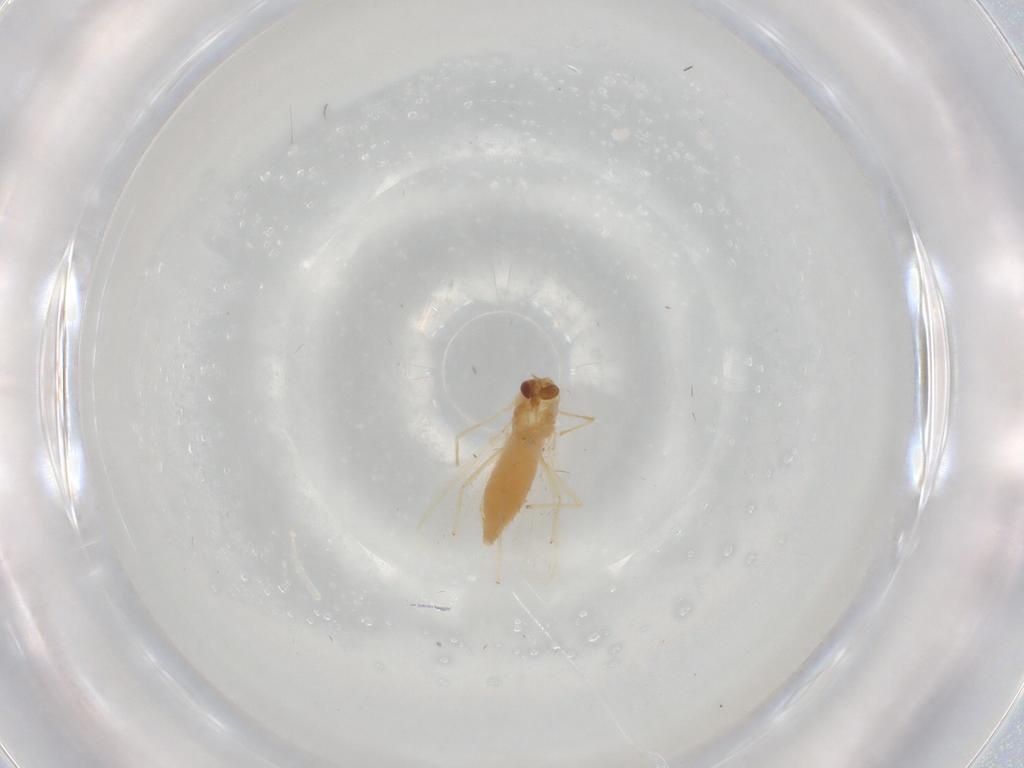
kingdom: Animalia
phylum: Arthropoda
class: Insecta
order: Diptera
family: Chironomidae
